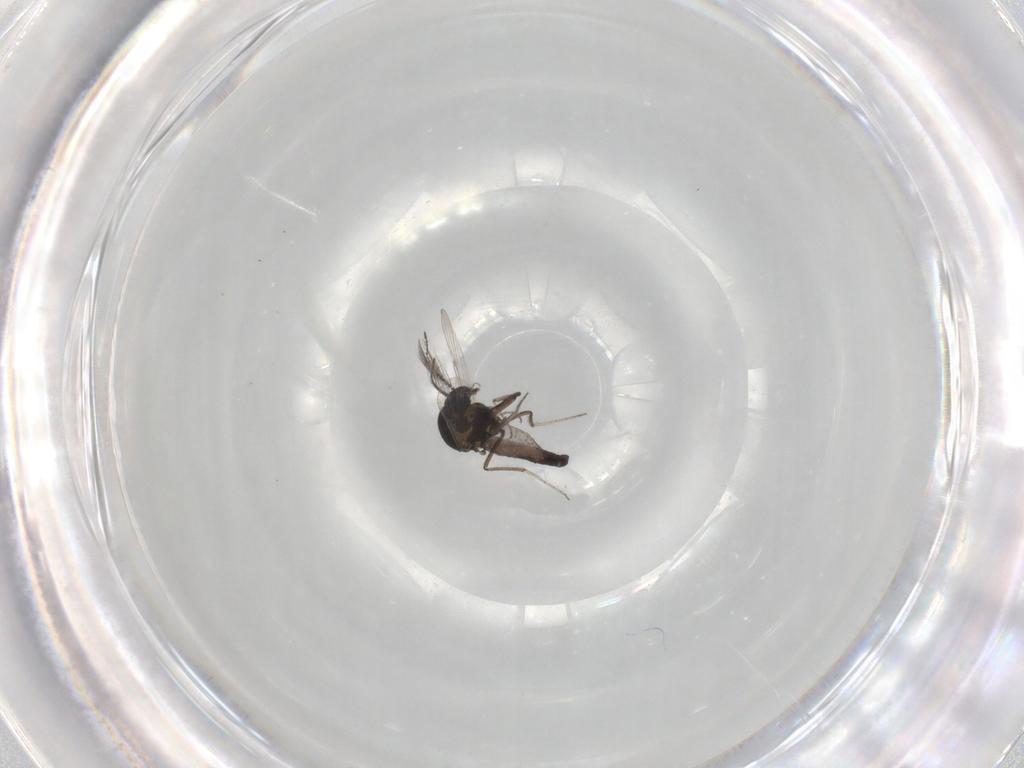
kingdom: Animalia
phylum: Arthropoda
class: Insecta
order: Diptera
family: Ceratopogonidae
